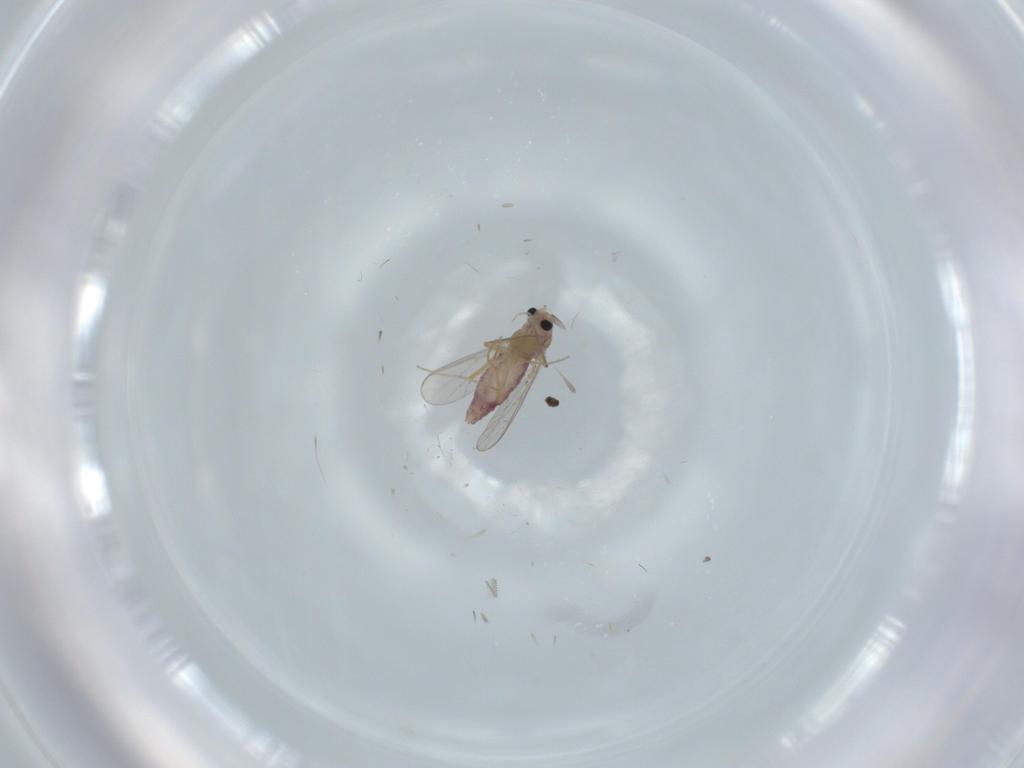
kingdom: Animalia
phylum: Arthropoda
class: Insecta
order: Diptera
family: Chironomidae
